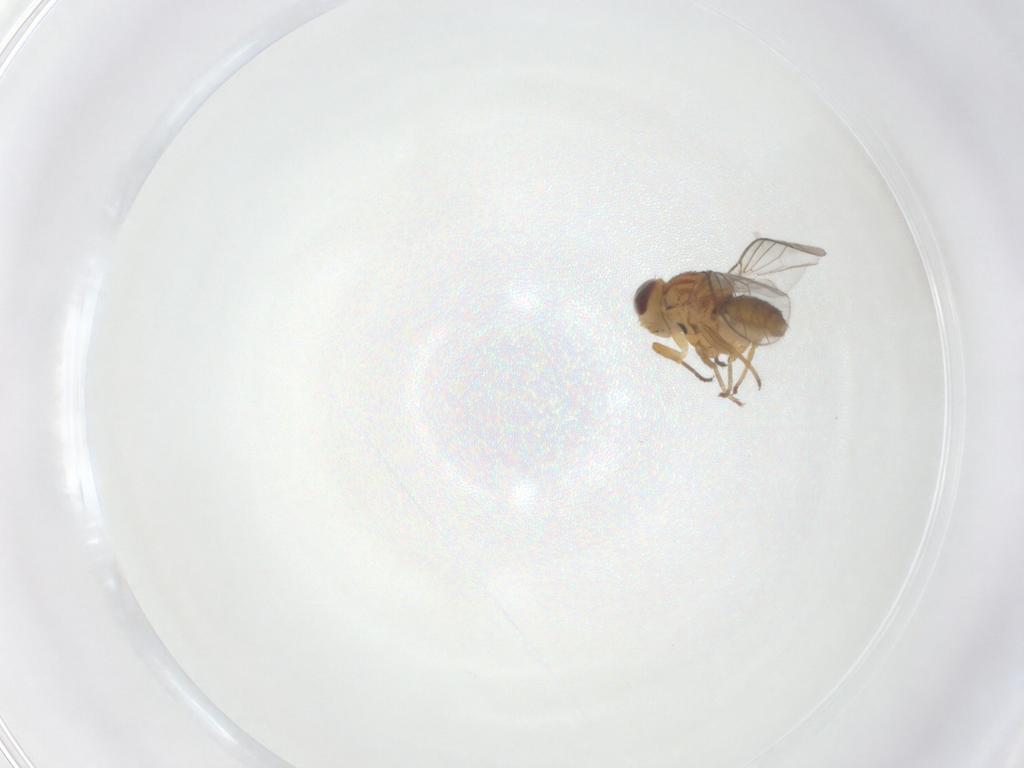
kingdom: Animalia
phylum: Arthropoda
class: Insecta
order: Diptera
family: Chloropidae
